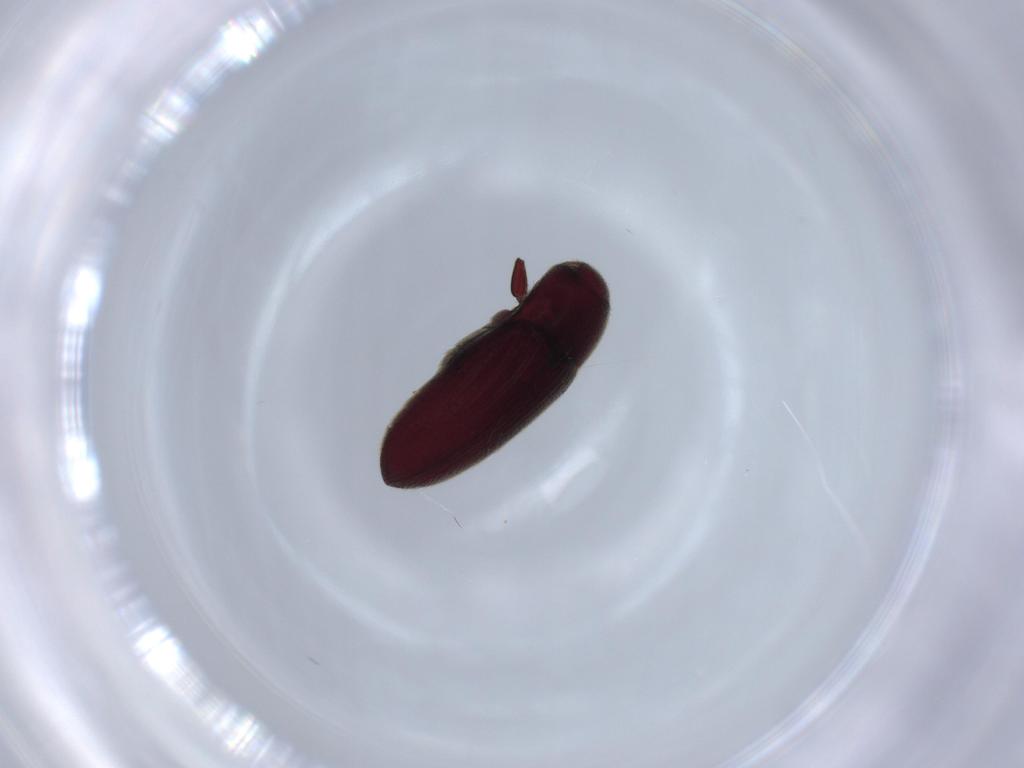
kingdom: Animalia
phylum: Arthropoda
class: Insecta
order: Coleoptera
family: Throscidae
